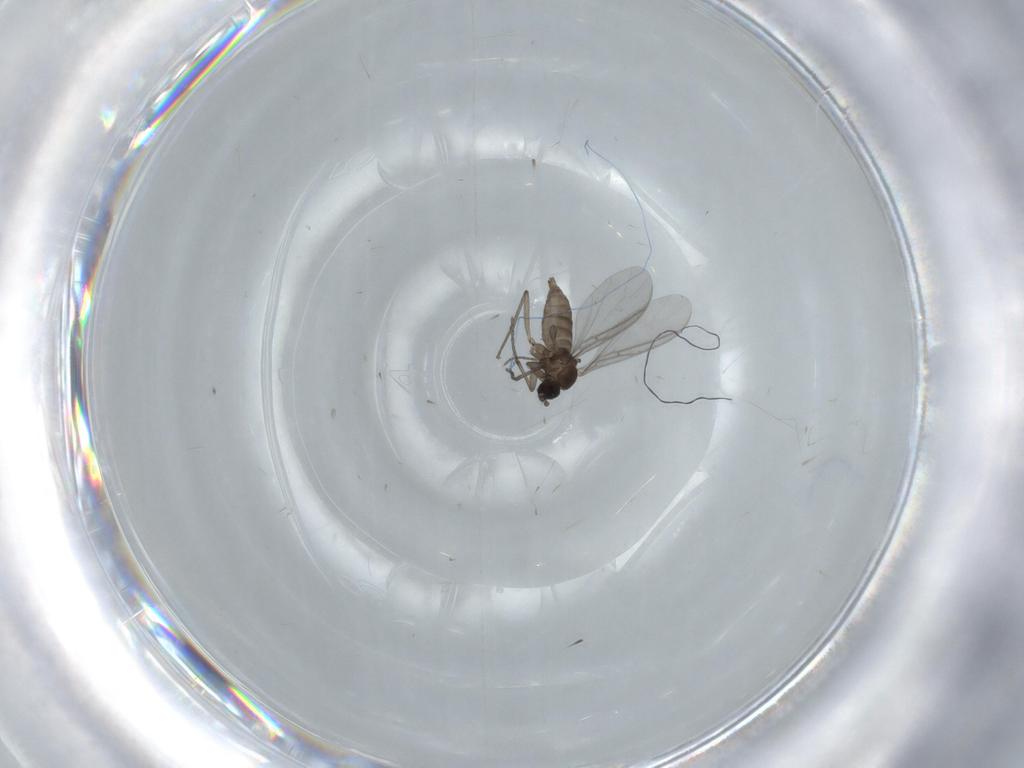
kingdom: Animalia
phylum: Arthropoda
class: Insecta
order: Diptera
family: Sciaridae
